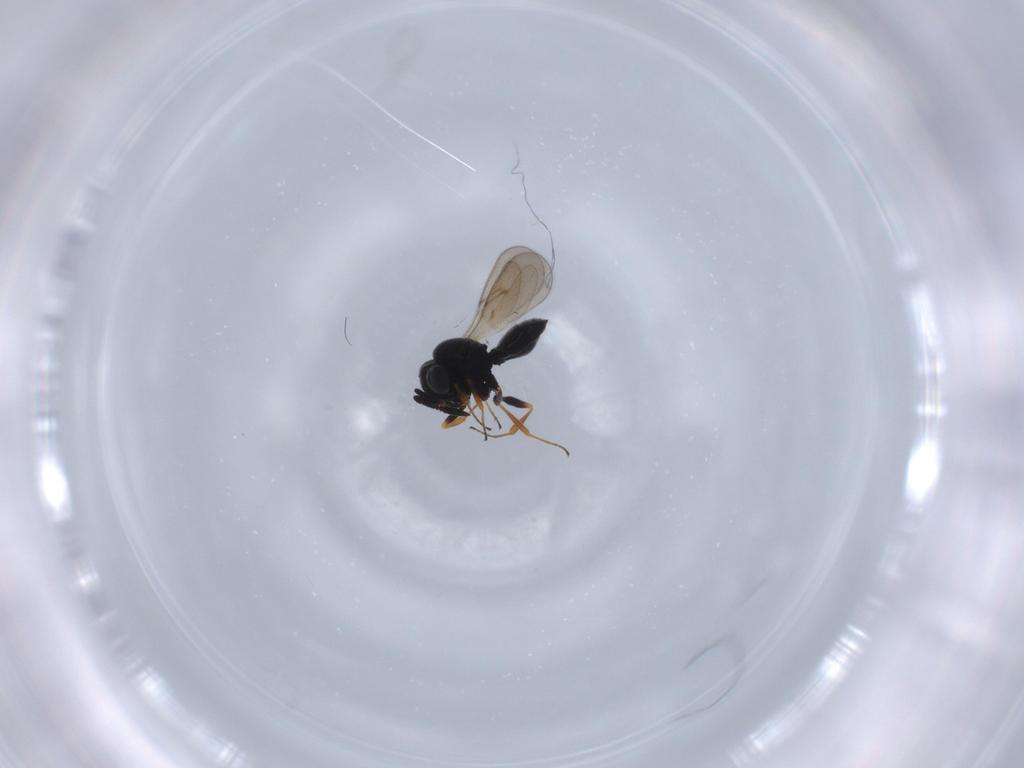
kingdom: Animalia
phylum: Arthropoda
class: Insecta
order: Hymenoptera
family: Scelionidae
